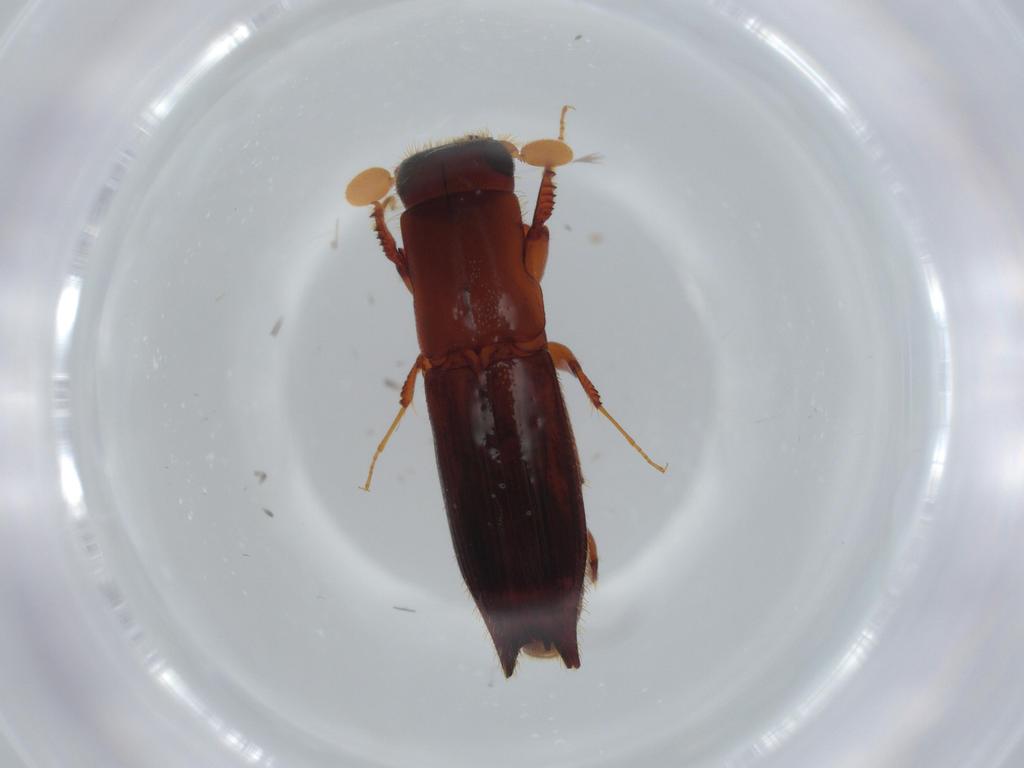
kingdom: Animalia
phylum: Arthropoda
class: Insecta
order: Coleoptera
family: Curculionidae
